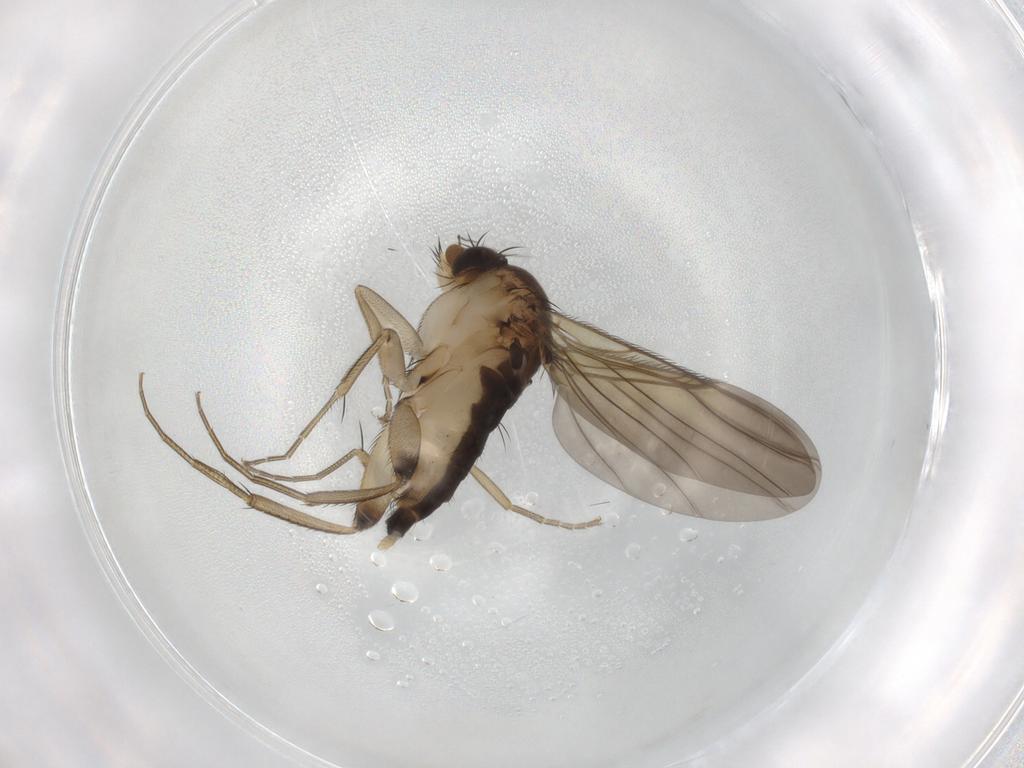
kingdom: Animalia
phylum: Arthropoda
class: Insecta
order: Diptera
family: Phoridae
